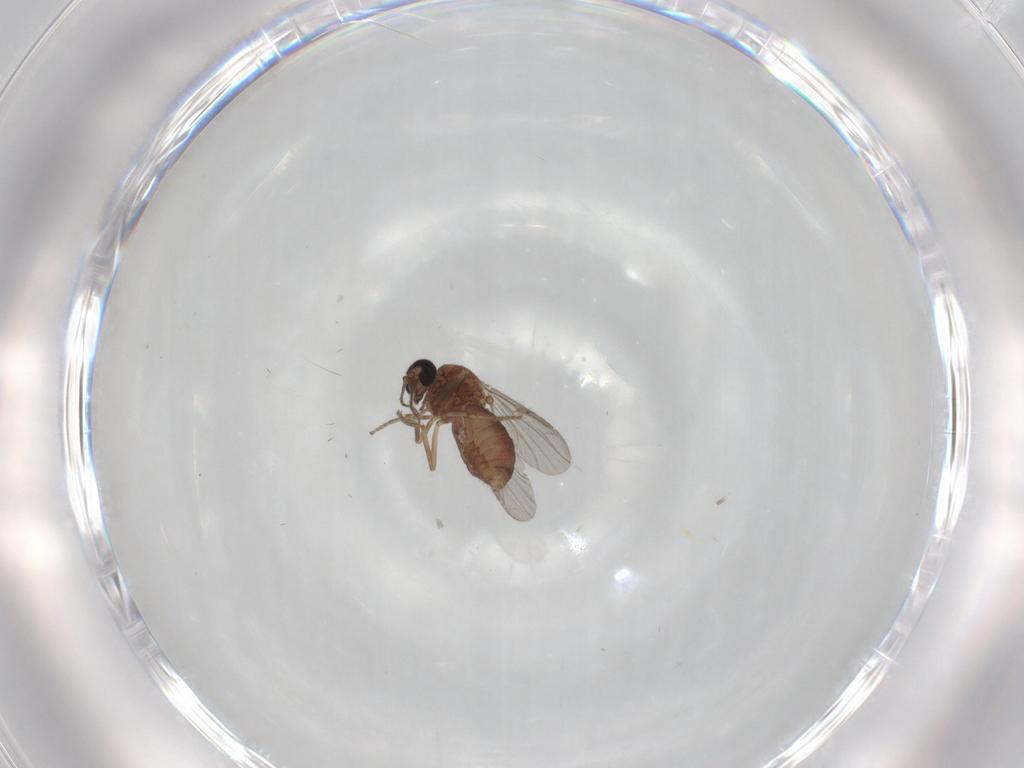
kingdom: Animalia
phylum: Arthropoda
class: Insecta
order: Diptera
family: Ceratopogonidae
